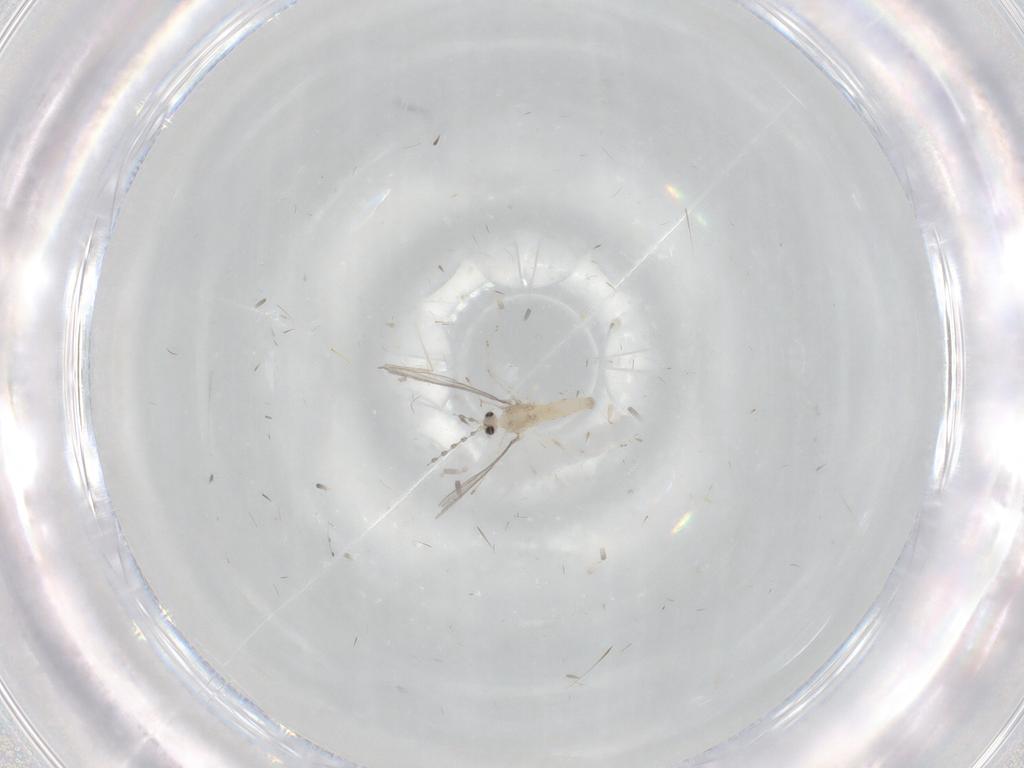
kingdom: Animalia
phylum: Arthropoda
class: Insecta
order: Diptera
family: Cecidomyiidae
